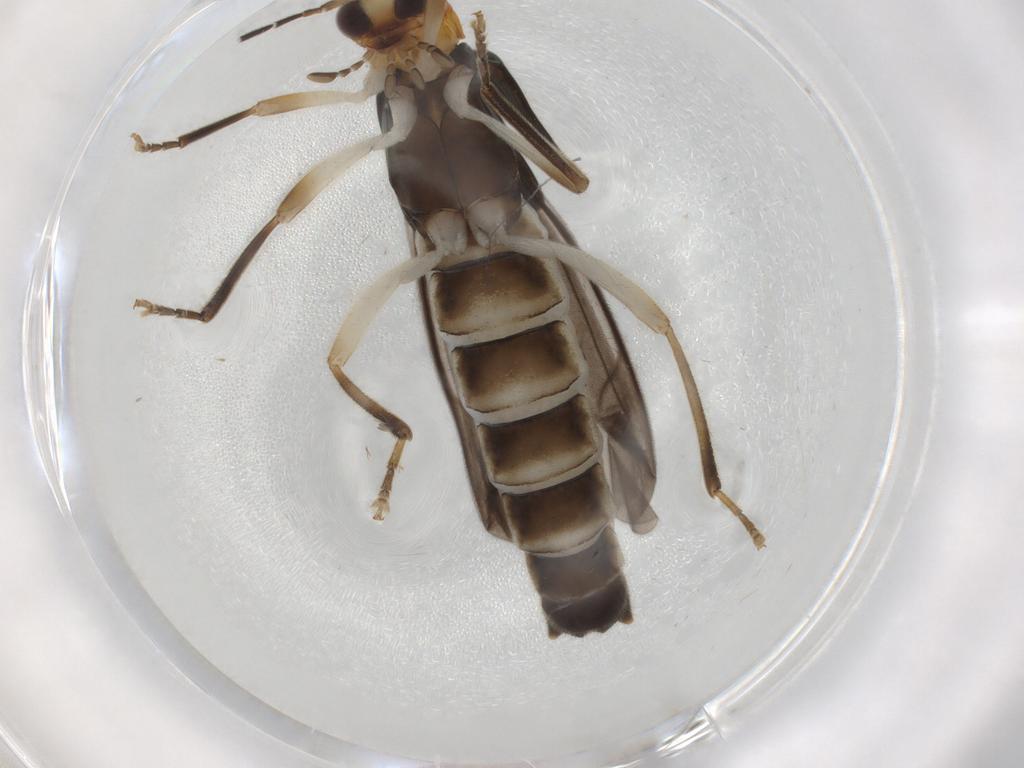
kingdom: Animalia
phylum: Arthropoda
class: Insecta
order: Coleoptera
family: Cantharidae
